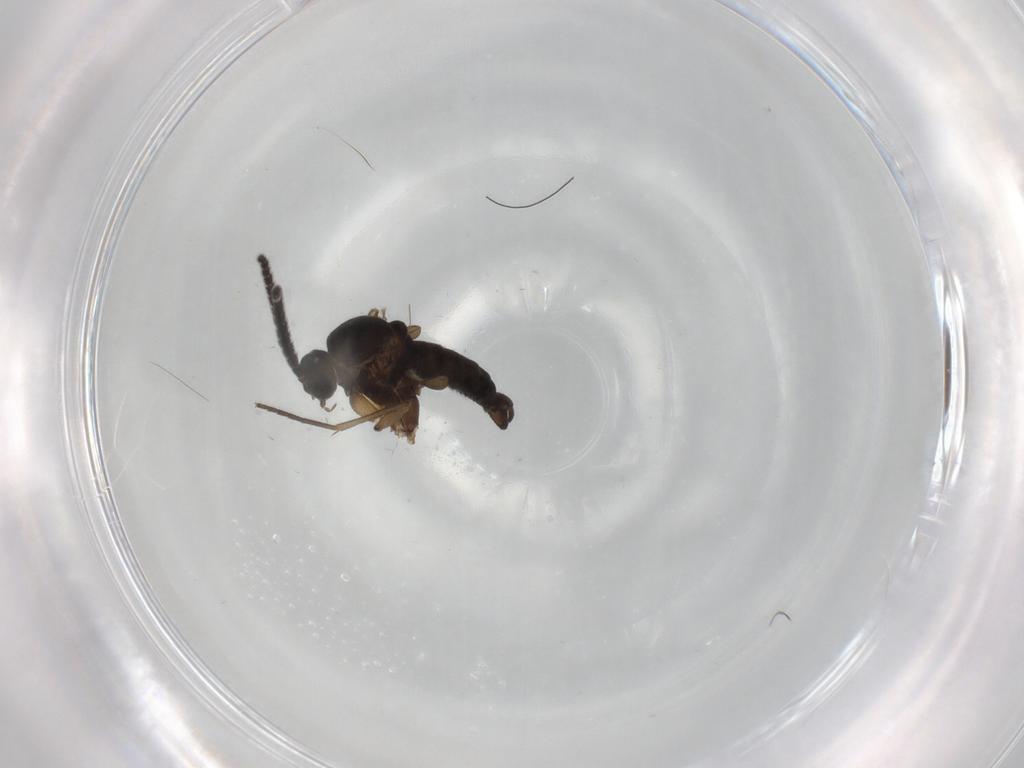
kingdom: Animalia
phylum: Arthropoda
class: Insecta
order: Diptera
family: Sciaridae
